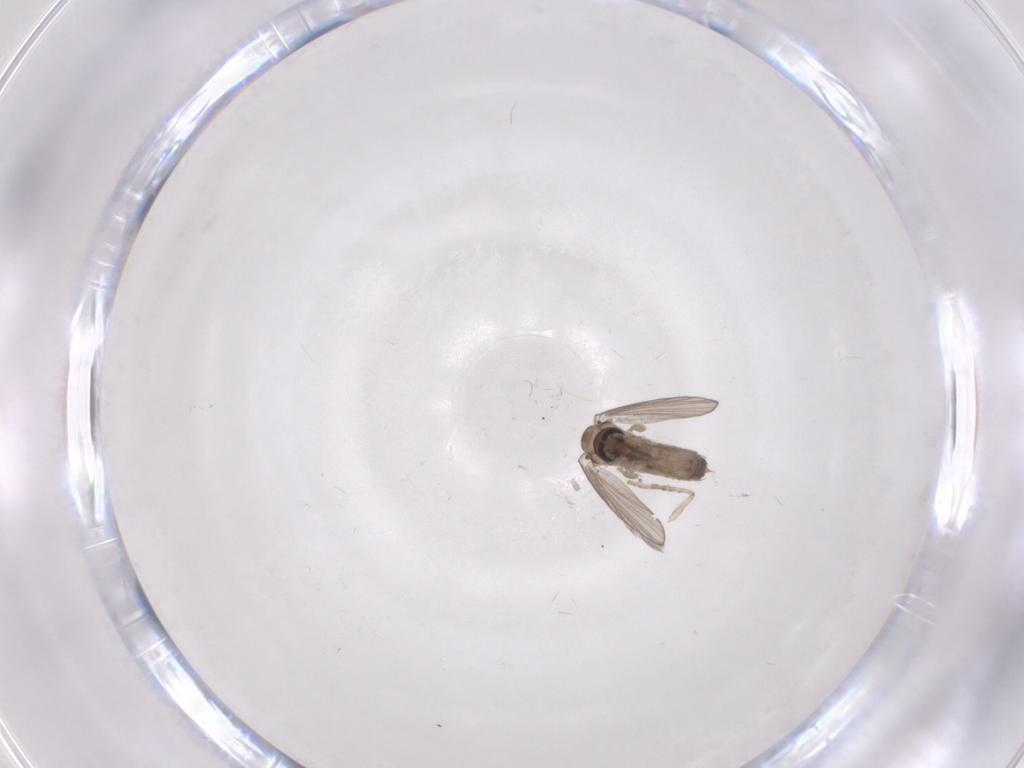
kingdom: Animalia
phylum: Arthropoda
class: Insecta
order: Diptera
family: Psychodidae
